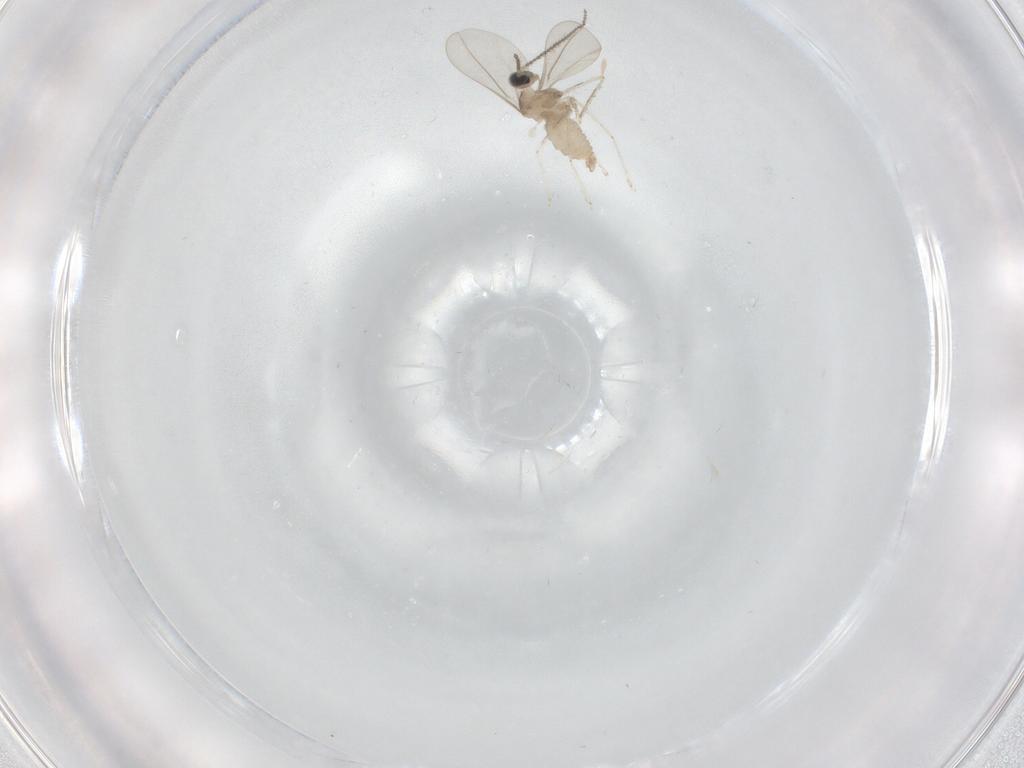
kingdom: Animalia
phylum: Arthropoda
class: Insecta
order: Diptera
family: Cecidomyiidae
